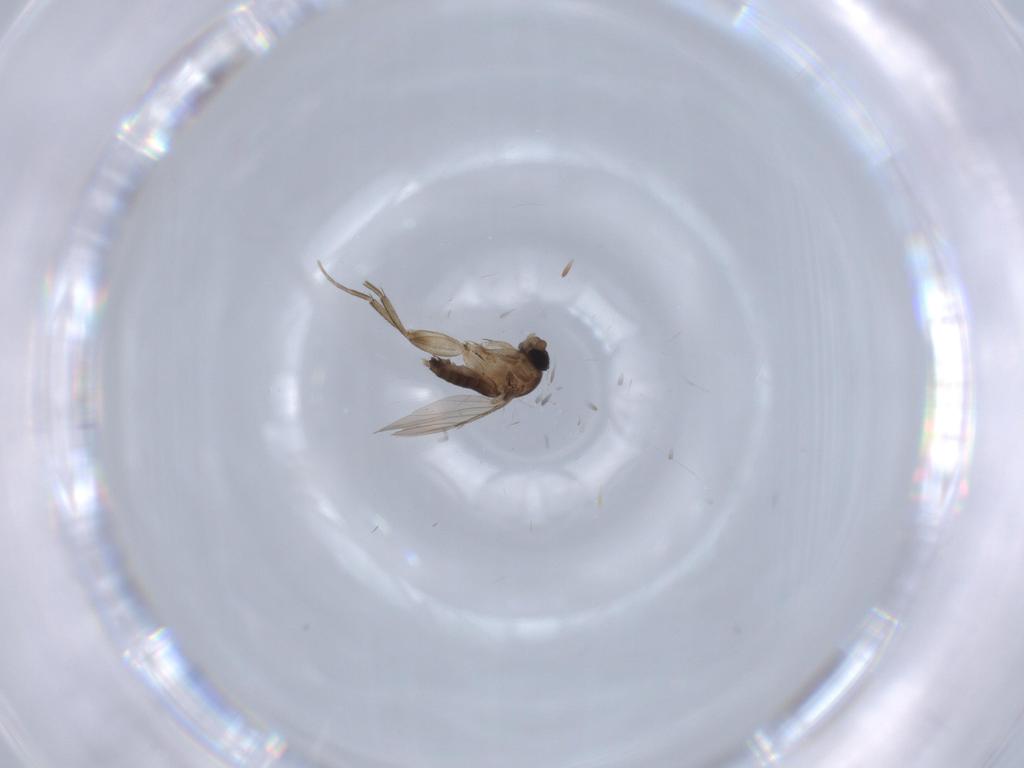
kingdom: Animalia
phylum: Arthropoda
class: Insecta
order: Diptera
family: Phoridae
